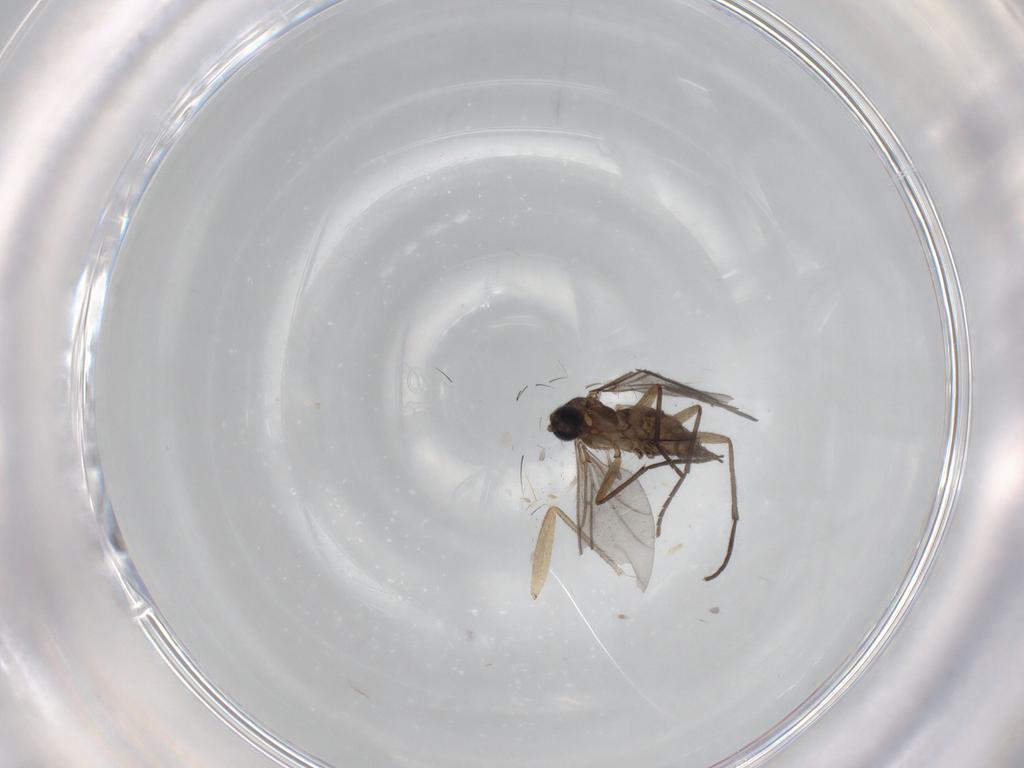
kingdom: Animalia
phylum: Arthropoda
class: Insecta
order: Diptera
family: Sciaridae
